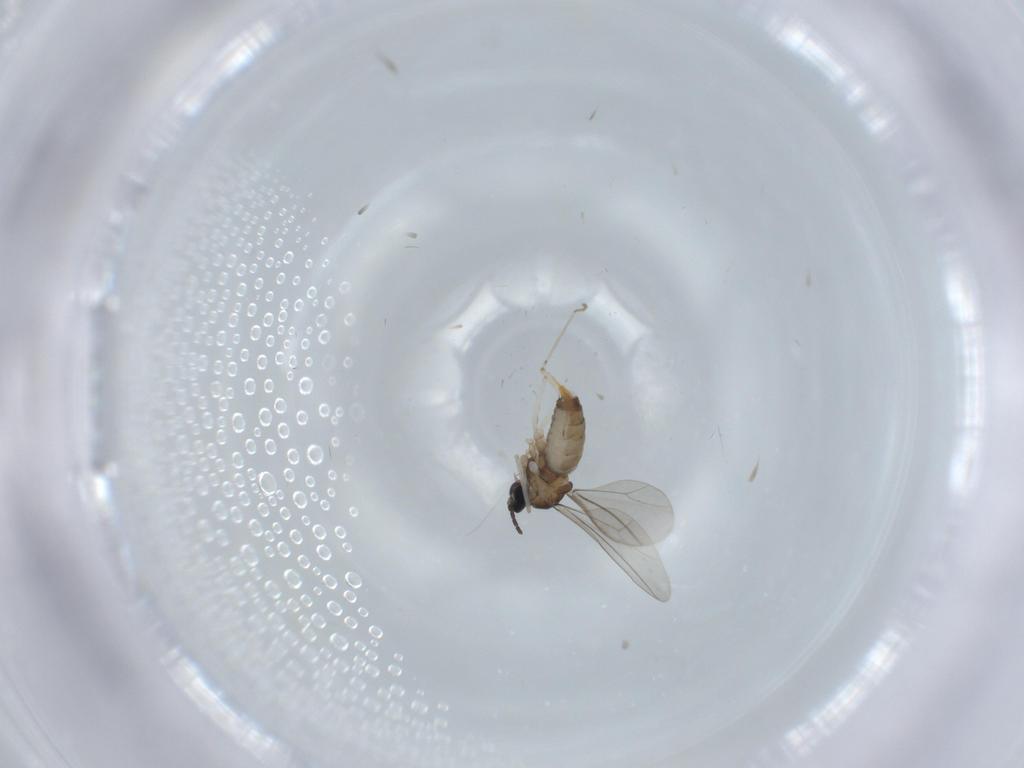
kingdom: Animalia
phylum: Arthropoda
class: Insecta
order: Diptera
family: Cecidomyiidae
